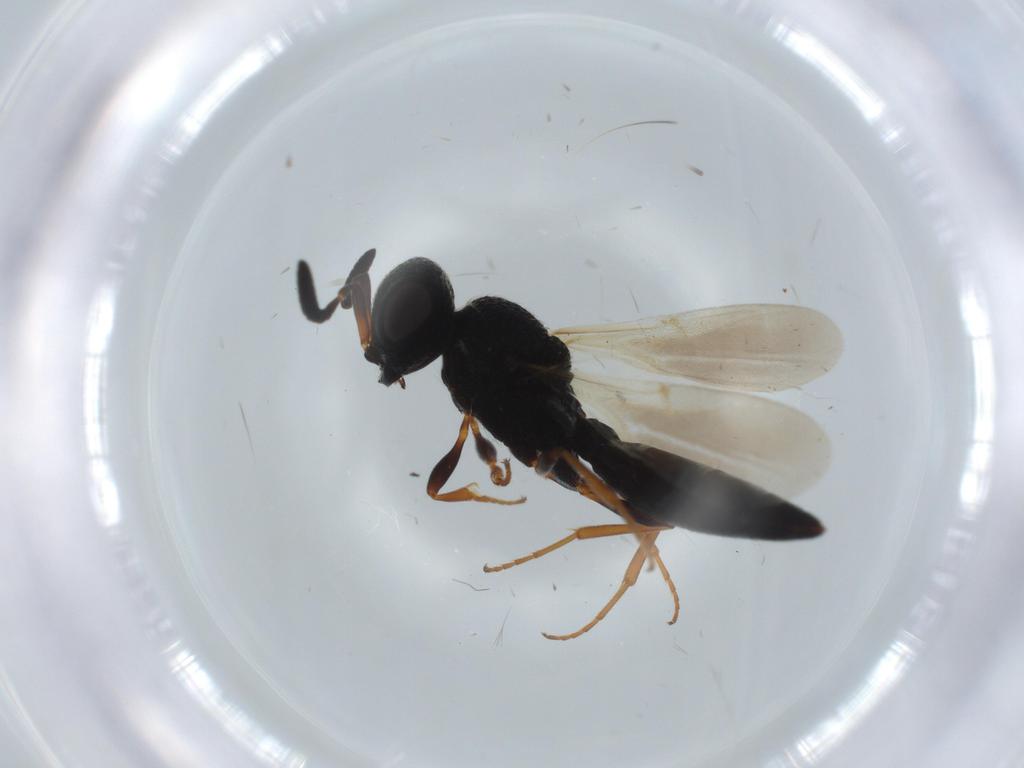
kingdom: Animalia
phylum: Arthropoda
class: Insecta
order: Hymenoptera
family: Scelionidae
